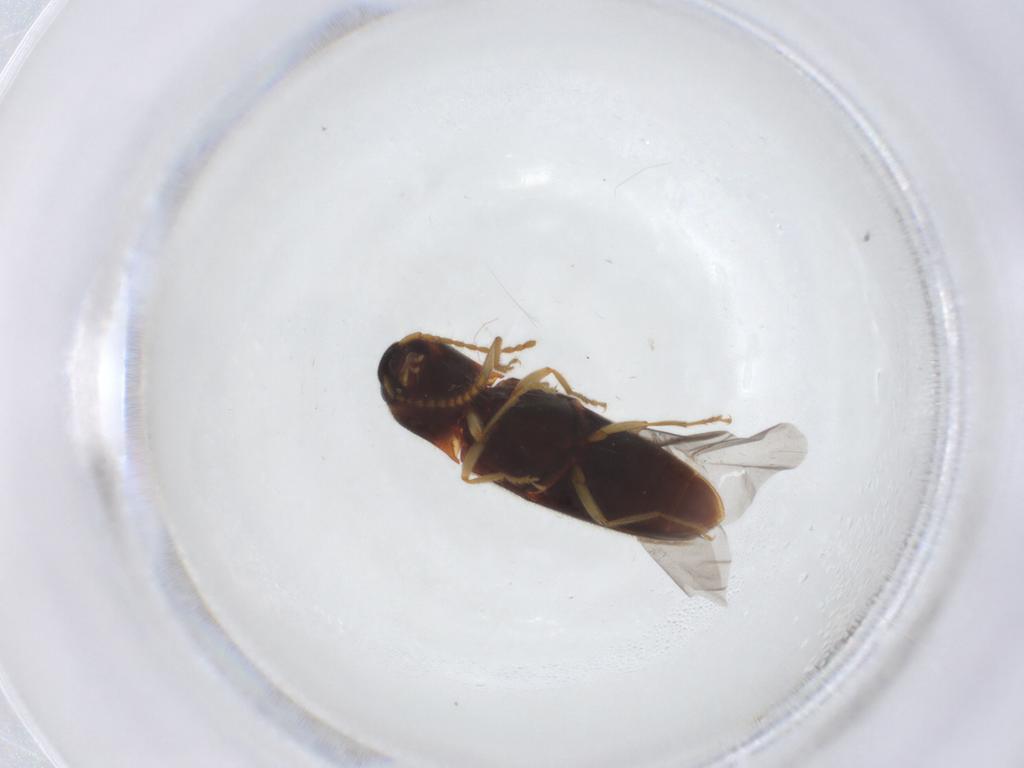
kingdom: Animalia
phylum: Arthropoda
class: Insecta
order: Coleoptera
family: Elateridae
